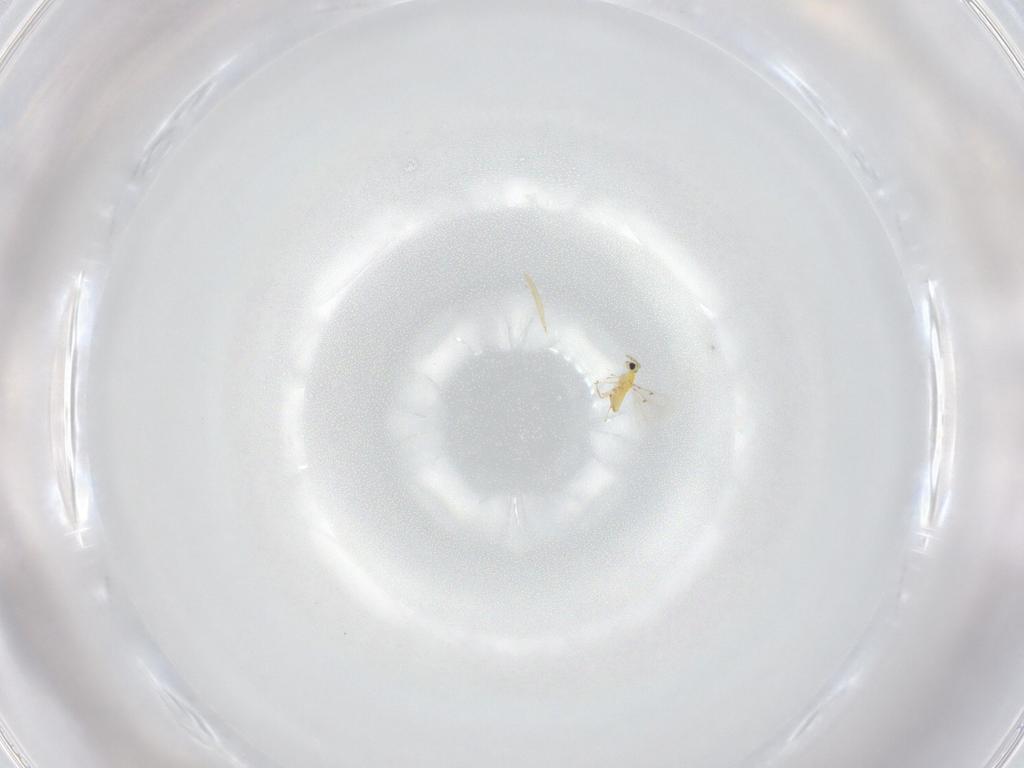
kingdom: Animalia
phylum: Arthropoda
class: Insecta
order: Hymenoptera
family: Trichogrammatidae
